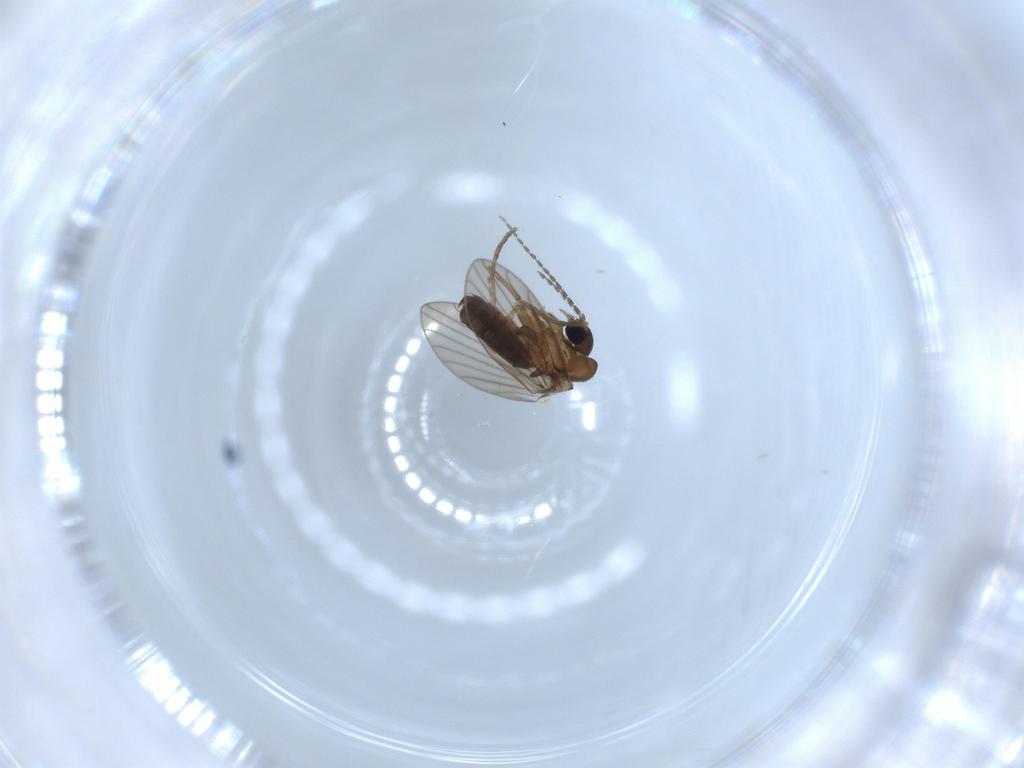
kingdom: Animalia
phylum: Arthropoda
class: Insecta
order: Diptera
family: Psychodidae
